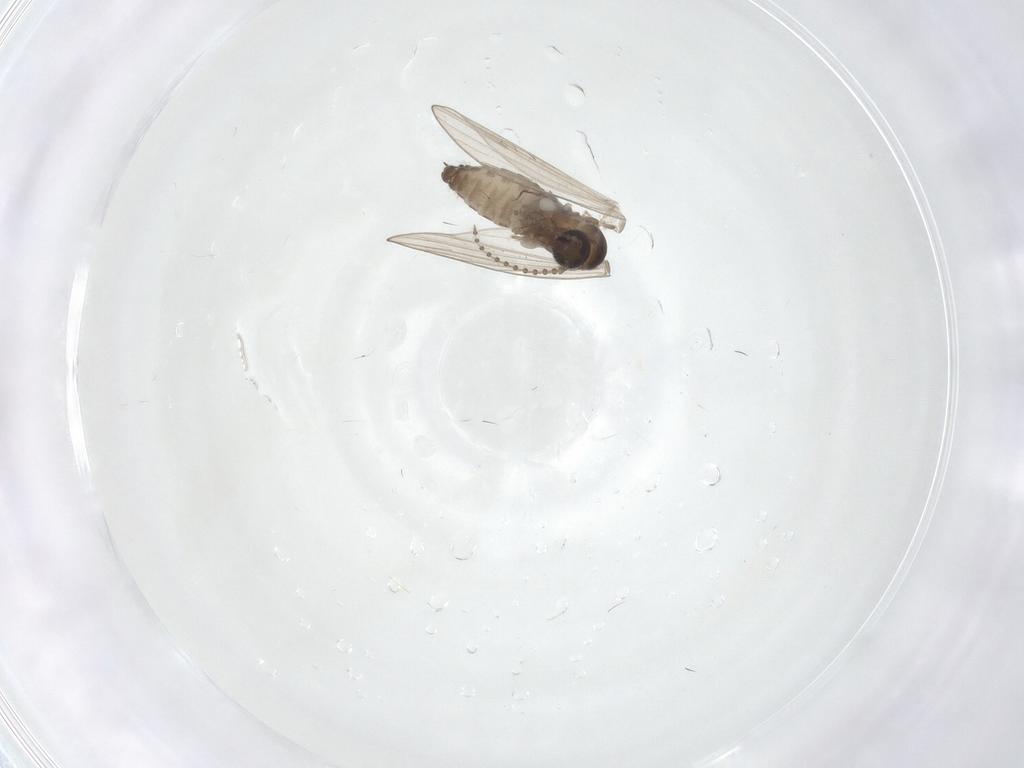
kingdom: Animalia
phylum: Arthropoda
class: Insecta
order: Diptera
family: Psychodidae
